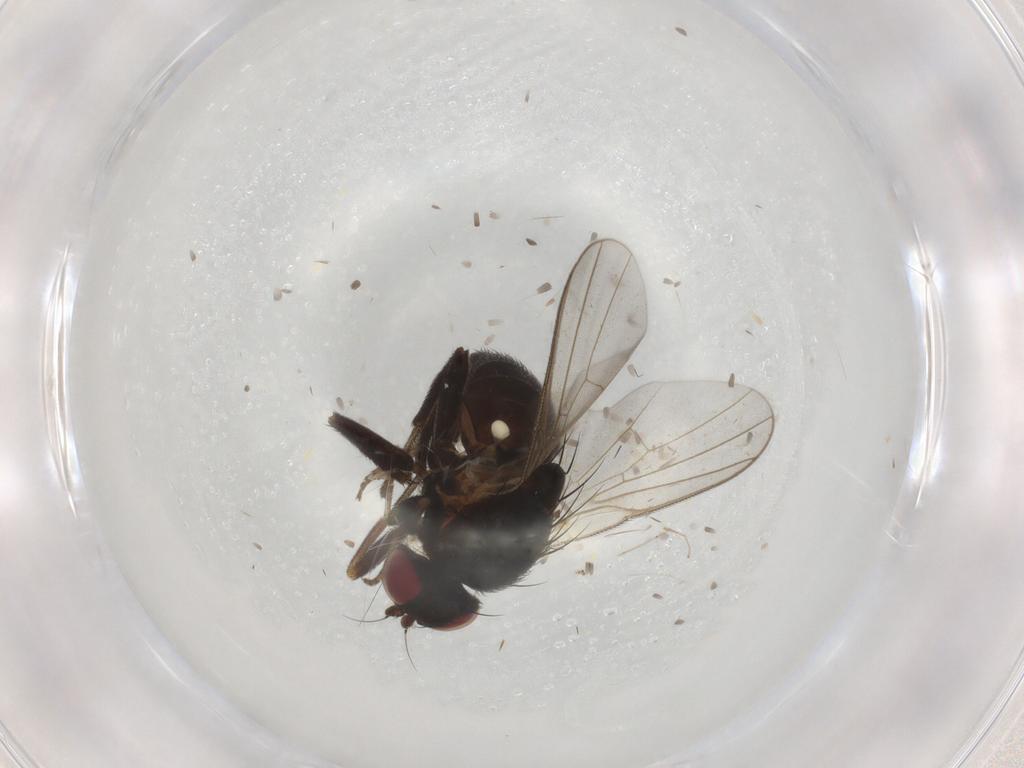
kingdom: Animalia
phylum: Arthropoda
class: Insecta
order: Diptera
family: Agromyzidae
